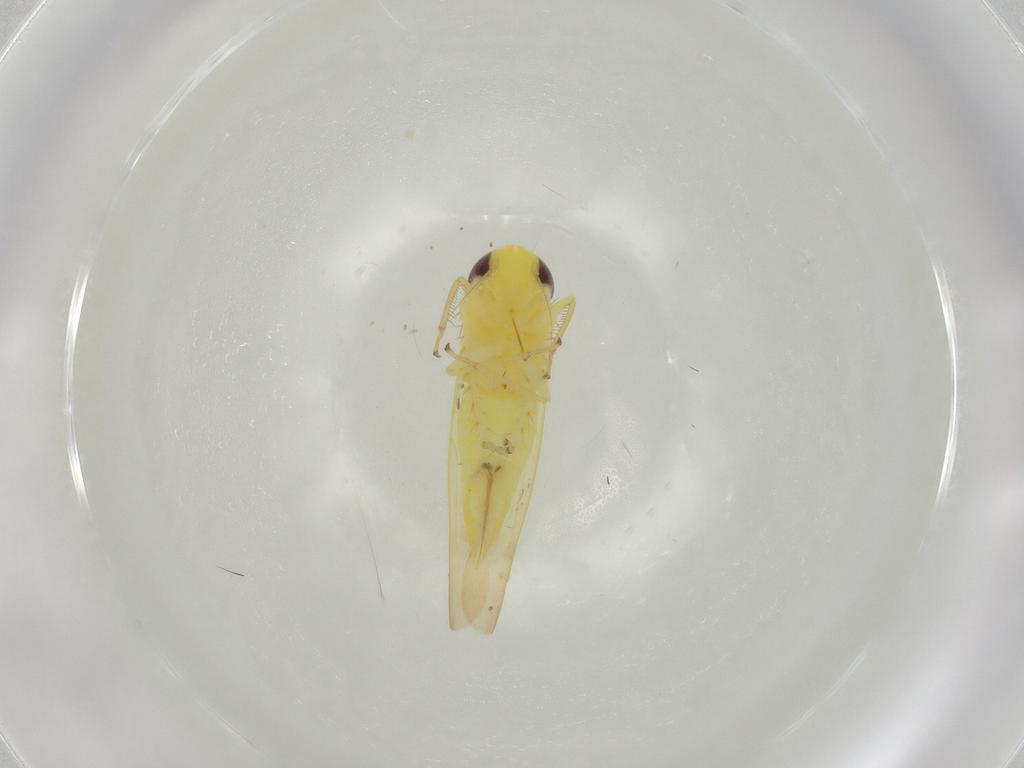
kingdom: Animalia
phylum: Arthropoda
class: Insecta
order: Hemiptera
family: Cicadellidae
